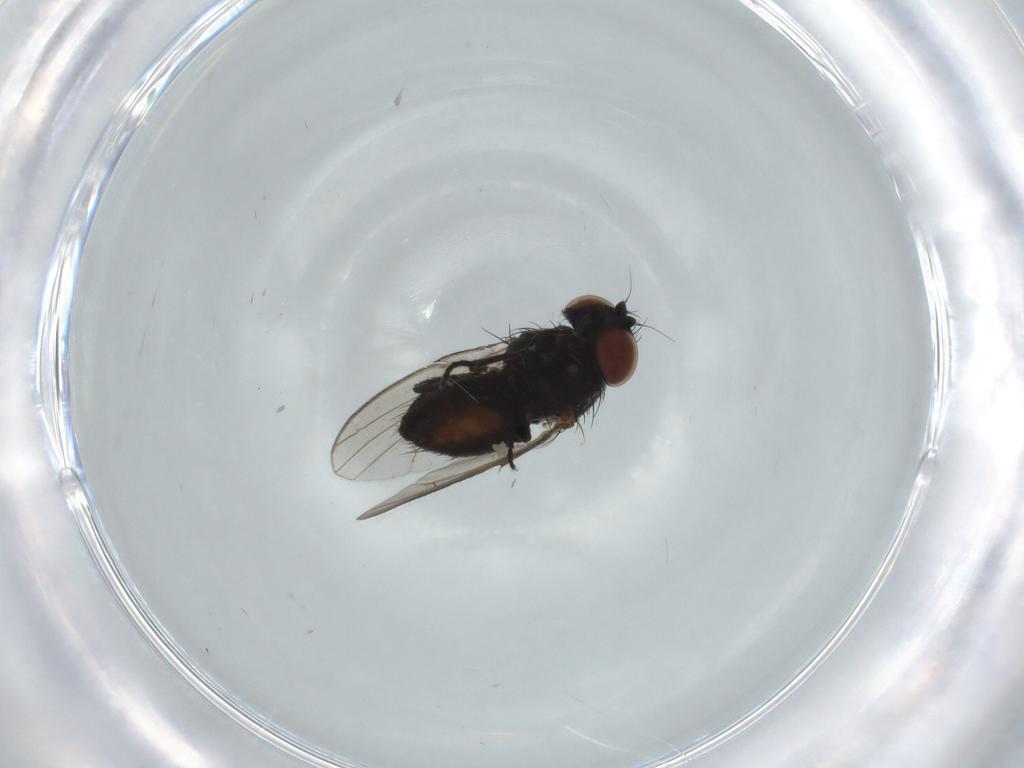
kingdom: Animalia
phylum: Arthropoda
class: Insecta
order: Diptera
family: Milichiidae
